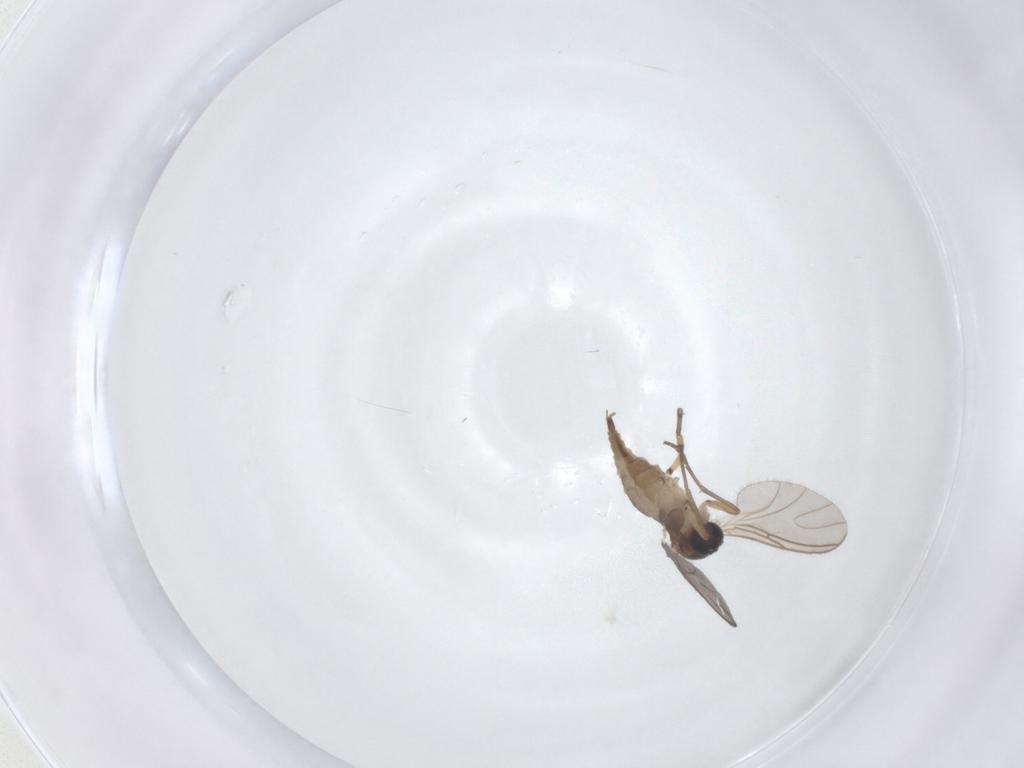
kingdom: Animalia
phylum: Arthropoda
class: Insecta
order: Diptera
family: Sciaridae
